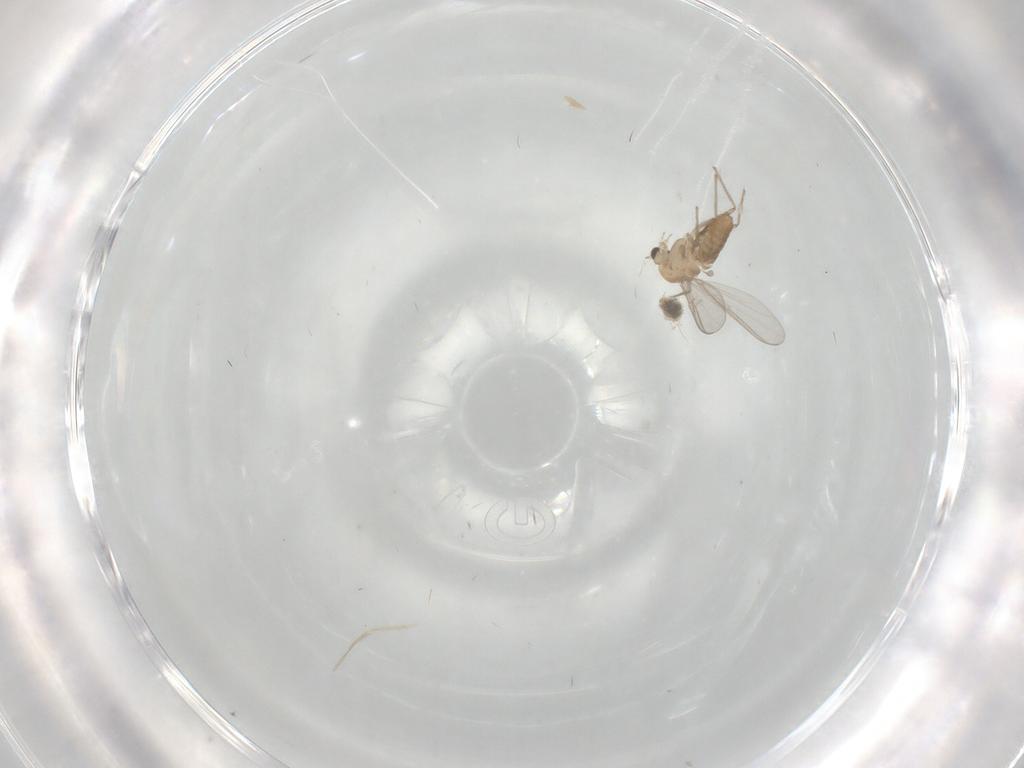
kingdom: Animalia
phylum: Arthropoda
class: Insecta
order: Diptera
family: Chironomidae
